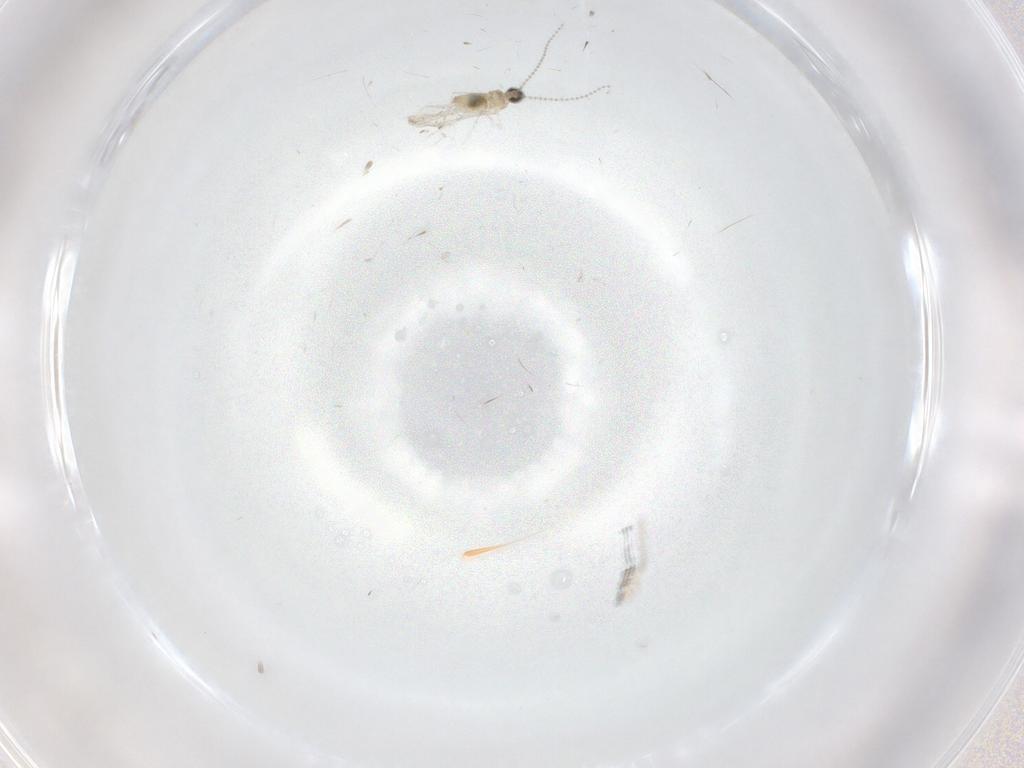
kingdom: Animalia
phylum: Arthropoda
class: Insecta
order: Diptera
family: Cecidomyiidae
